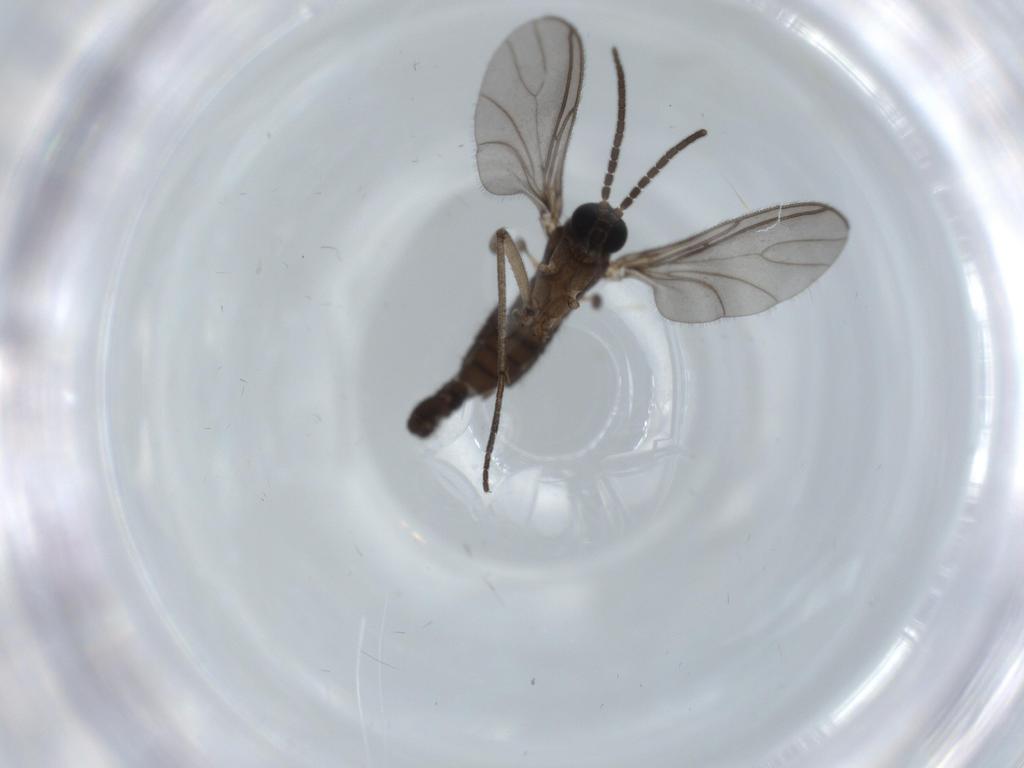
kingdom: Animalia
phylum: Arthropoda
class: Insecta
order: Diptera
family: Sciaridae
